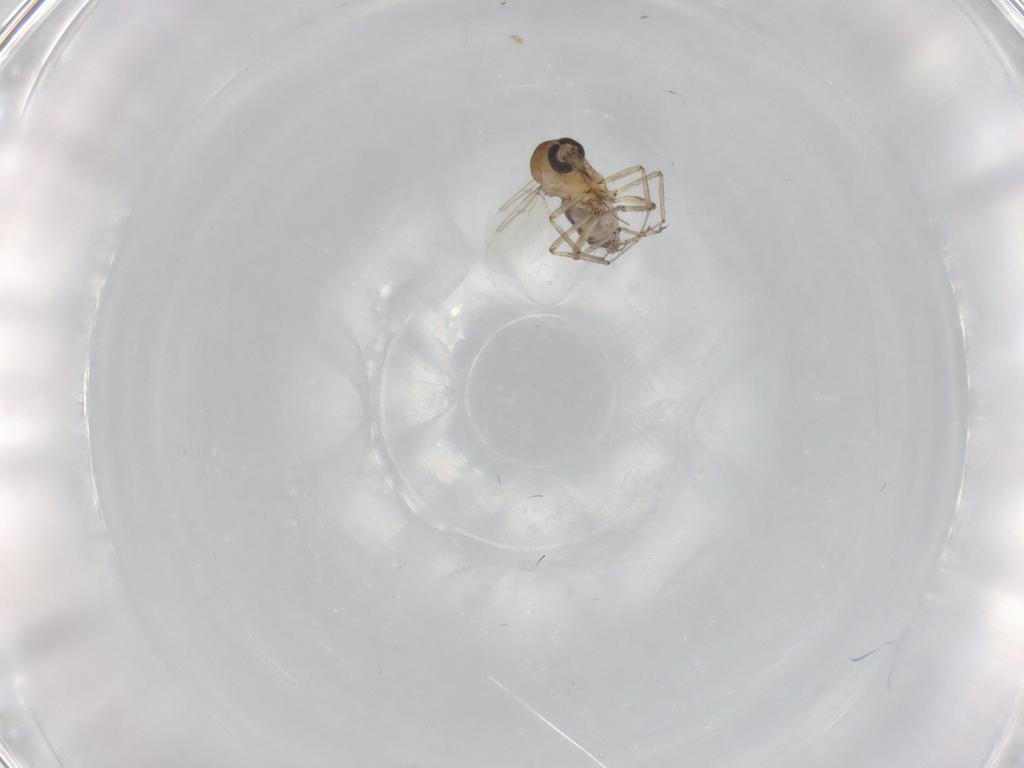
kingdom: Animalia
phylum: Arthropoda
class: Insecta
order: Diptera
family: Ceratopogonidae
